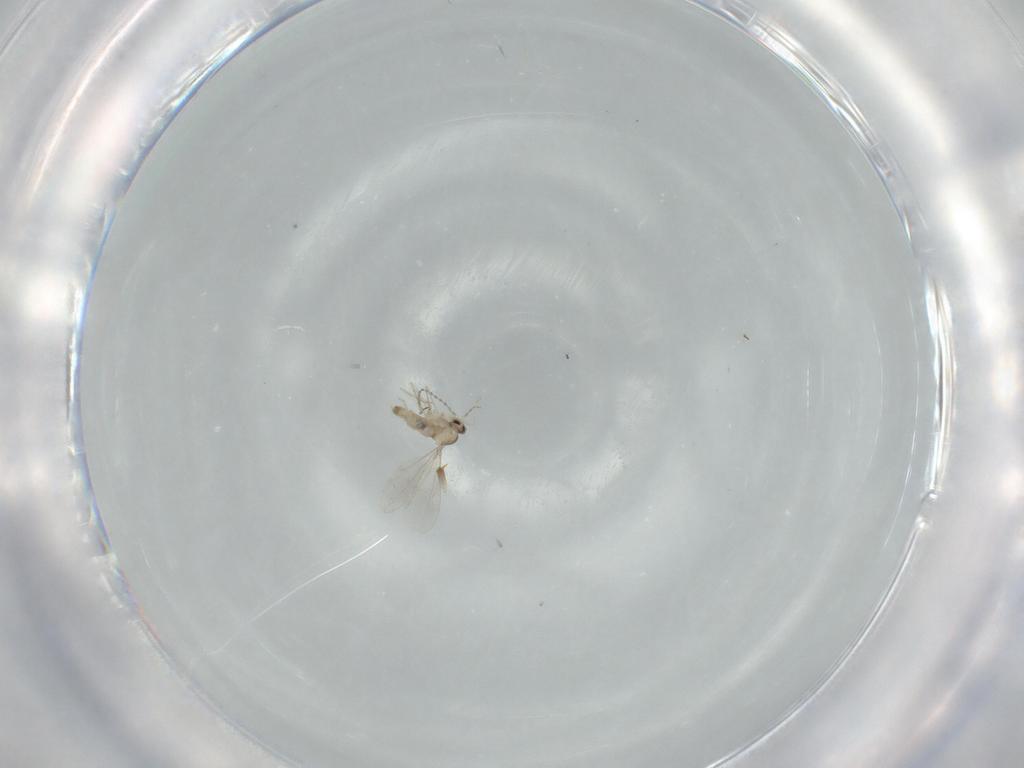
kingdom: Animalia
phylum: Arthropoda
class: Insecta
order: Diptera
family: Cecidomyiidae
